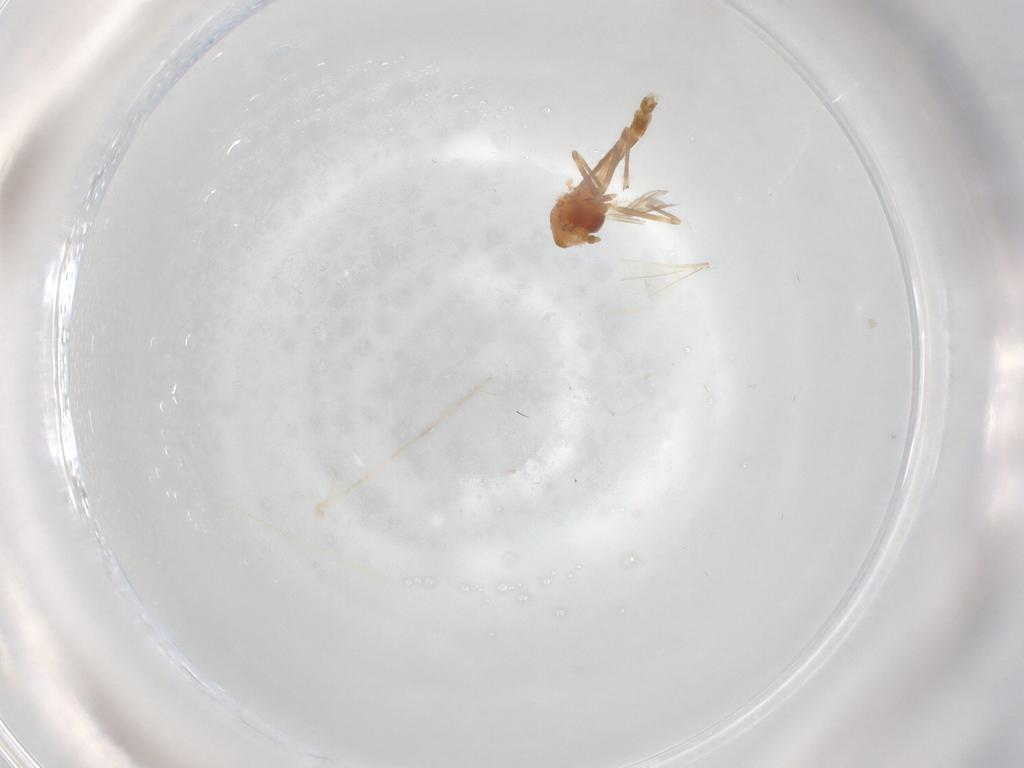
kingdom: Animalia
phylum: Arthropoda
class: Insecta
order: Diptera
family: Chironomidae
